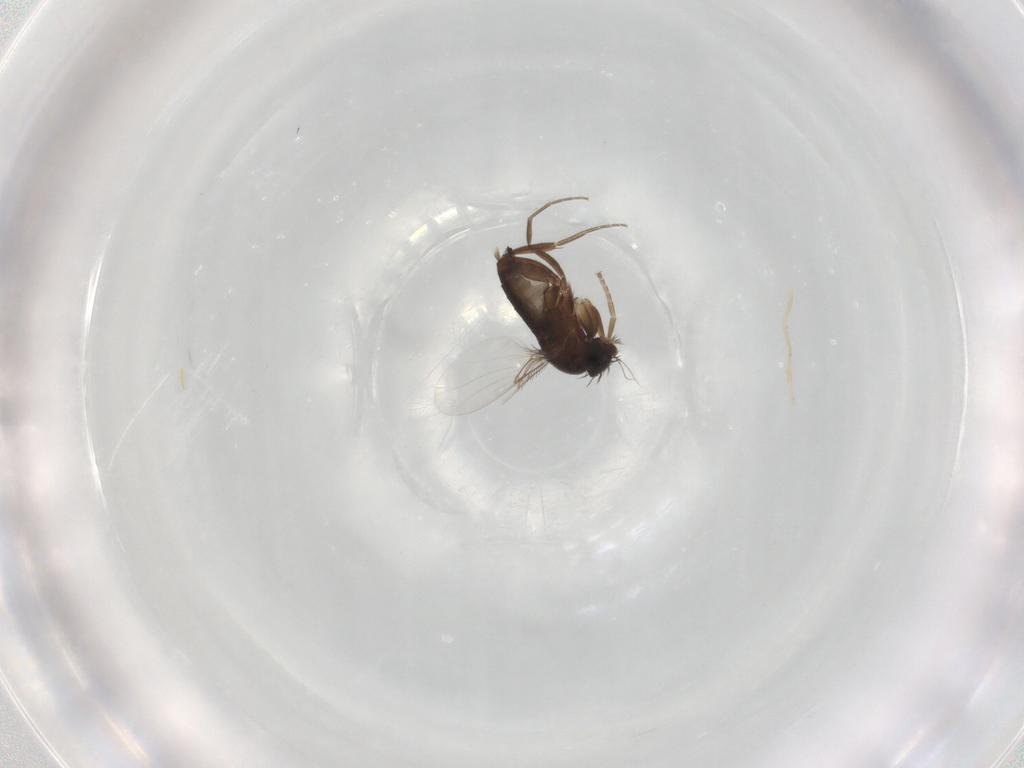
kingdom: Animalia
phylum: Arthropoda
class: Insecta
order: Diptera
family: Phoridae
